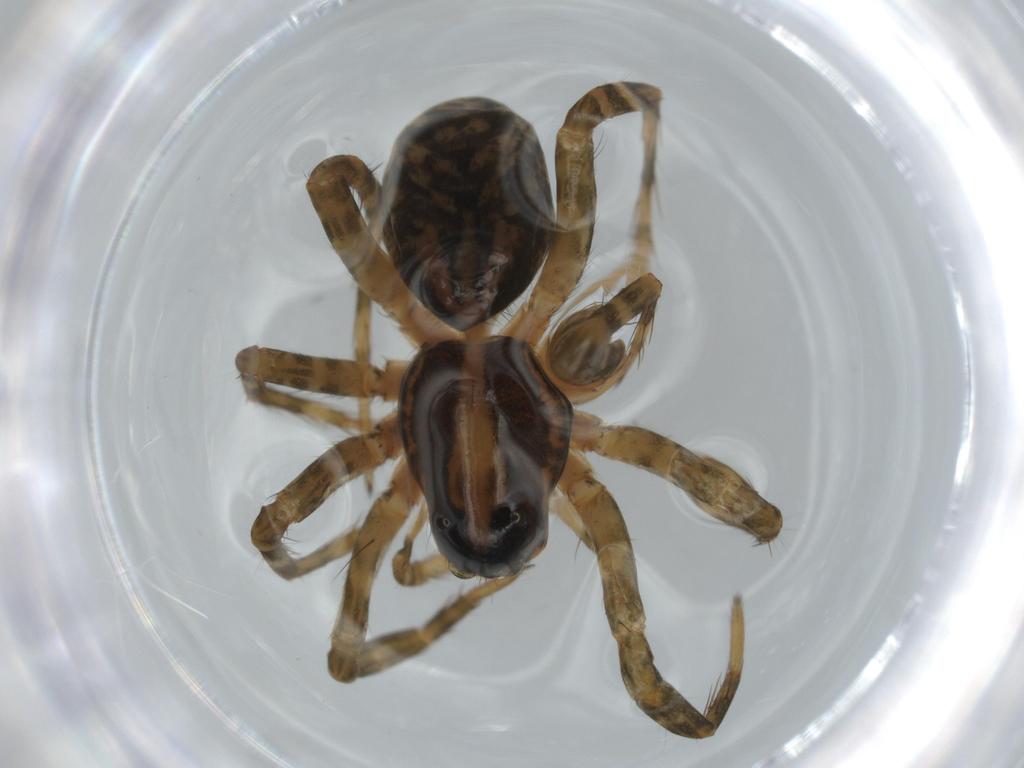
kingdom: Animalia
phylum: Arthropoda
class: Arachnida
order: Araneae
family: Lycosidae
